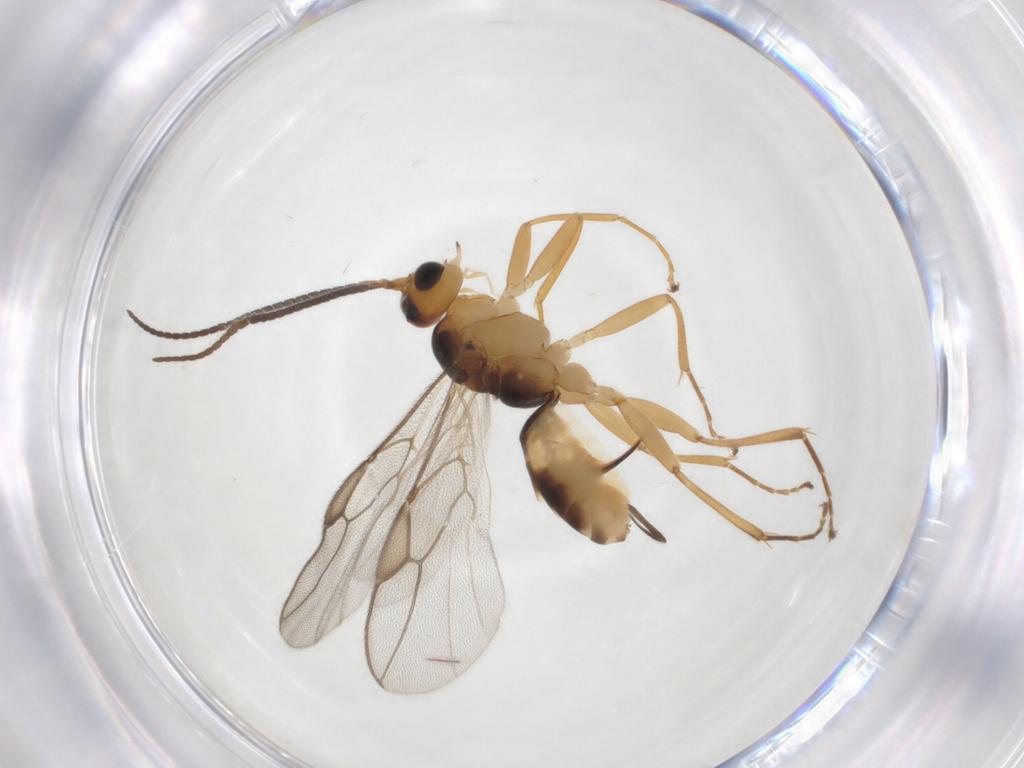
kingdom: Animalia
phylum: Arthropoda
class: Insecta
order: Hymenoptera
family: Braconidae
